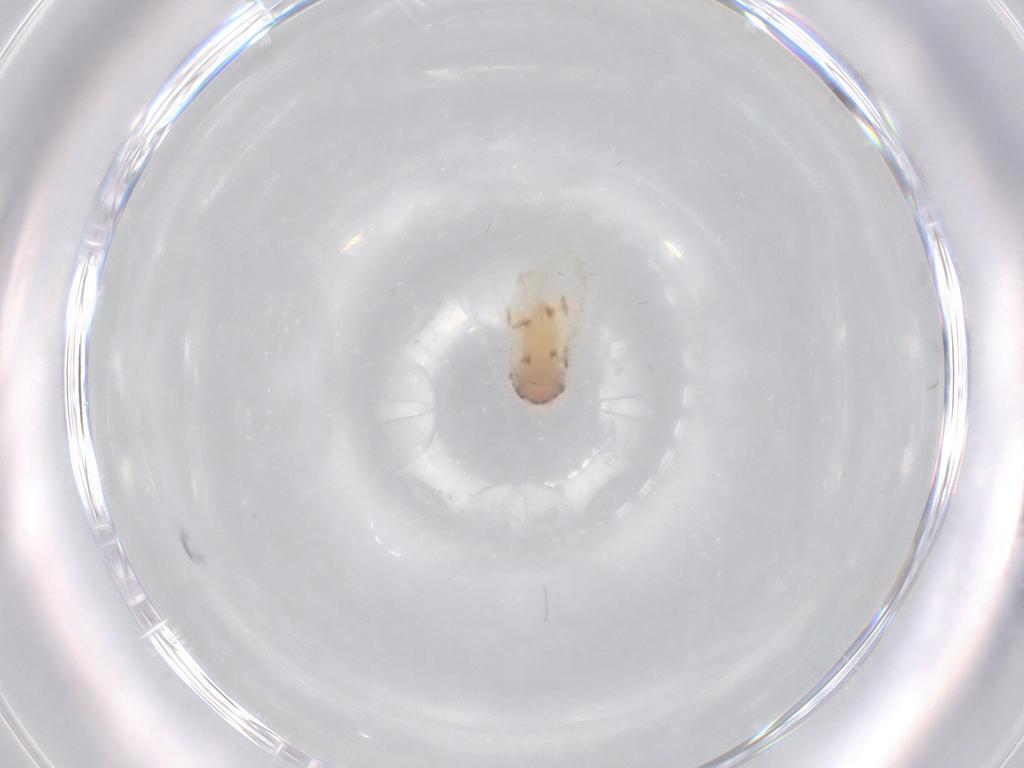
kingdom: Animalia
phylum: Arthropoda
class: Insecta
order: Hemiptera
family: Aleyrodidae
